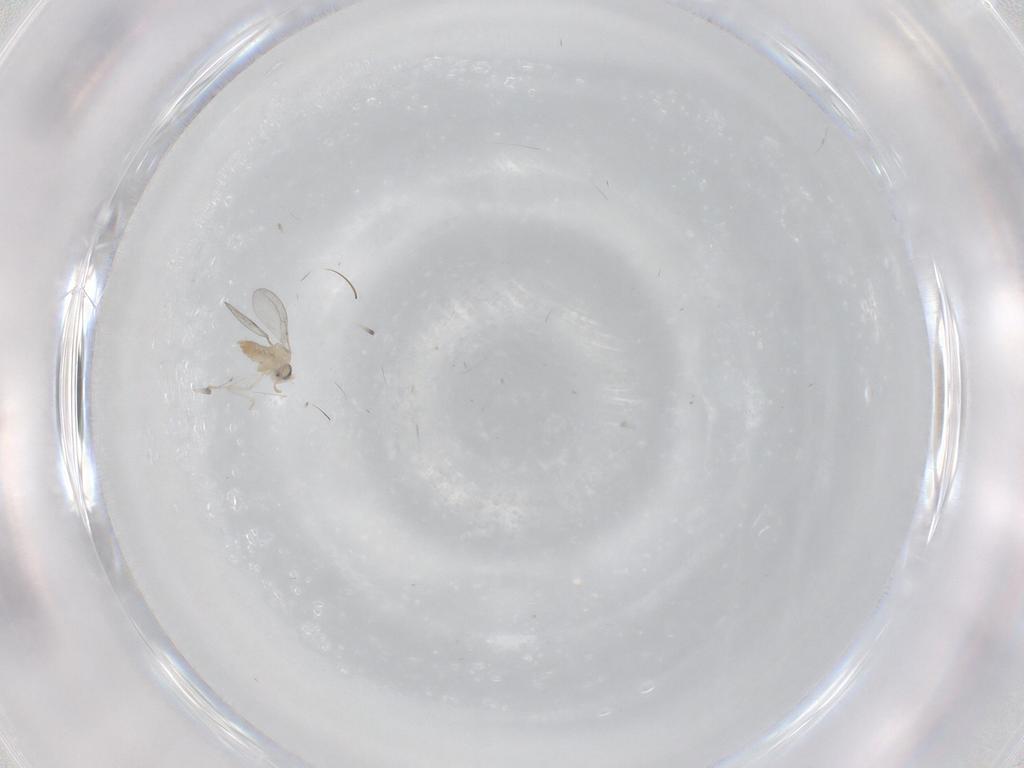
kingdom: Animalia
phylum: Arthropoda
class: Insecta
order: Diptera
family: Cecidomyiidae
